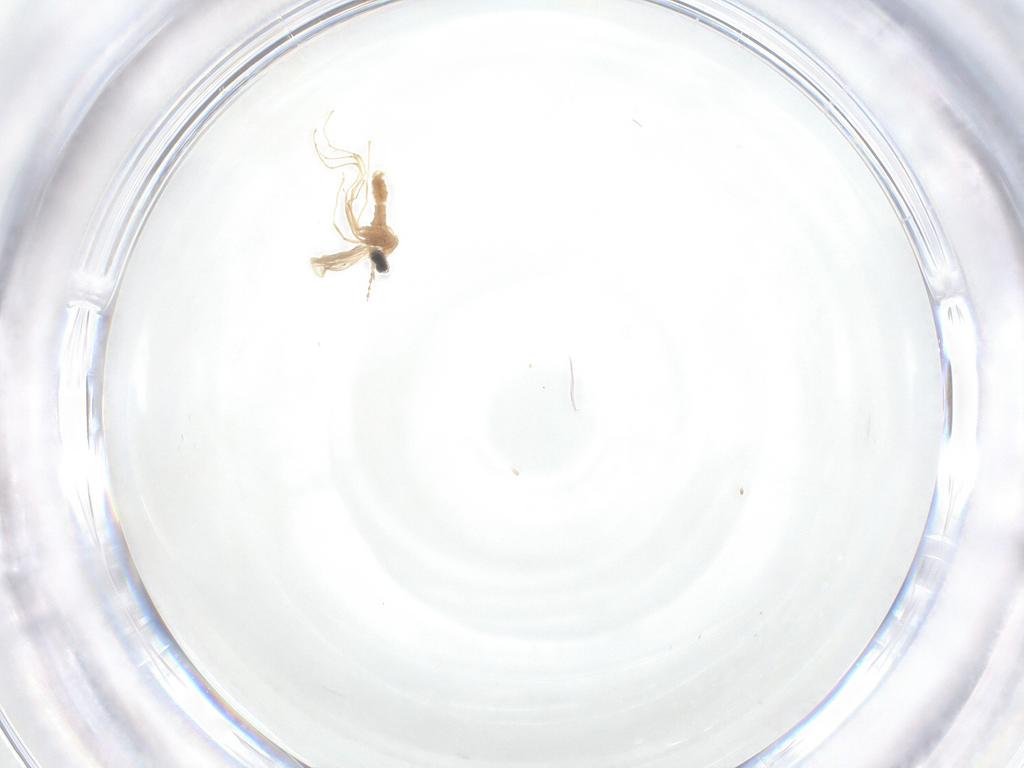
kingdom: Animalia
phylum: Arthropoda
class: Insecta
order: Diptera
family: Cecidomyiidae
